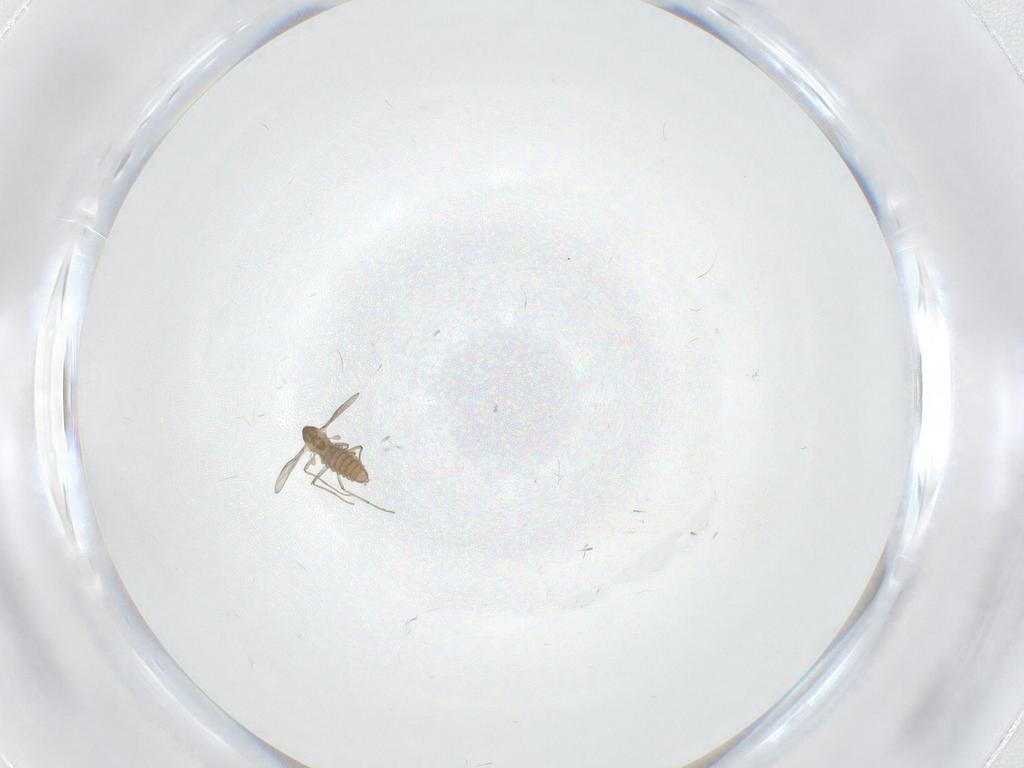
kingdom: Animalia
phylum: Arthropoda
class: Insecta
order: Diptera
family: Chironomidae
